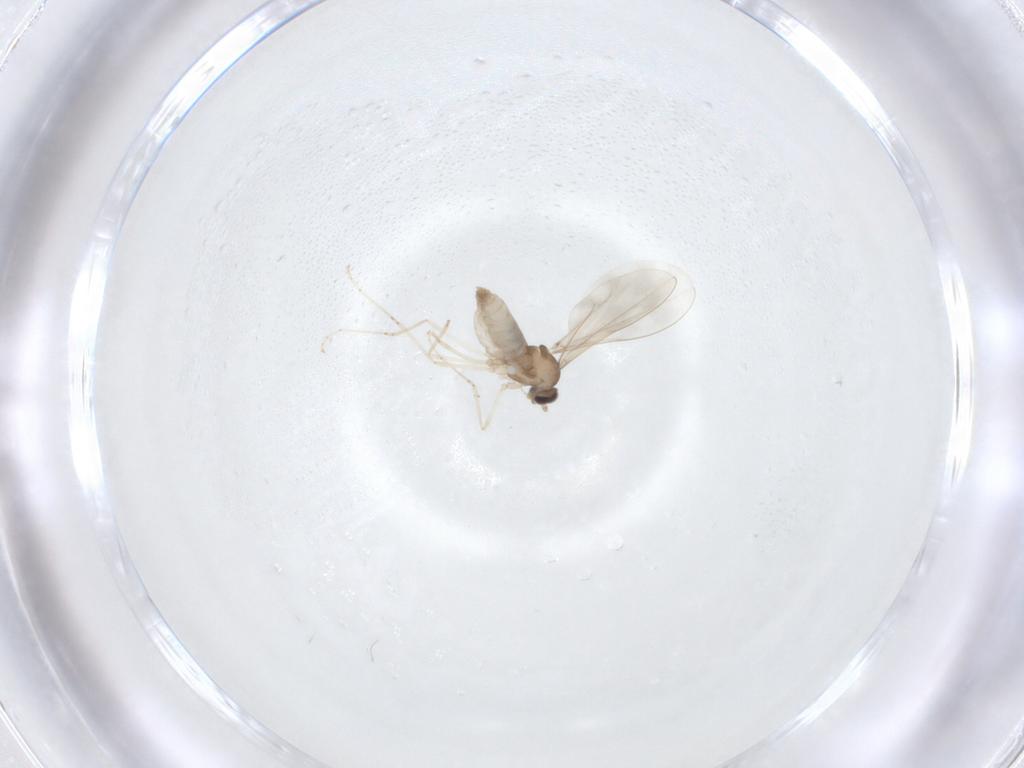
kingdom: Animalia
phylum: Arthropoda
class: Insecta
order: Diptera
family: Cecidomyiidae
